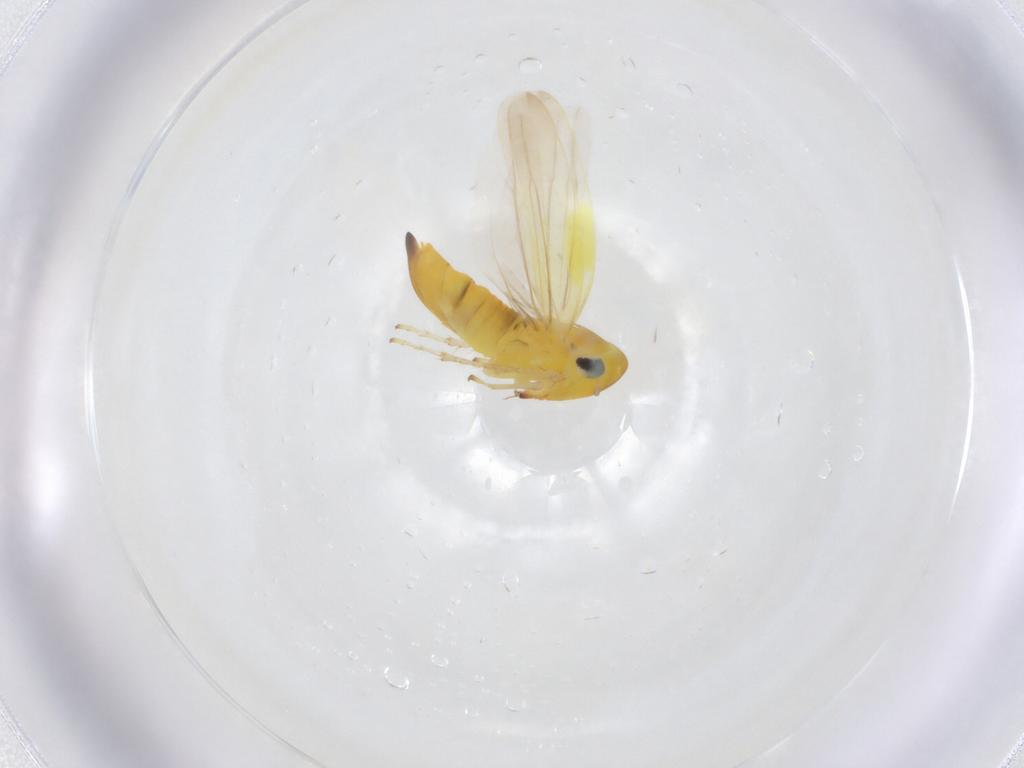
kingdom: Animalia
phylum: Arthropoda
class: Insecta
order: Hemiptera
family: Cicadellidae
